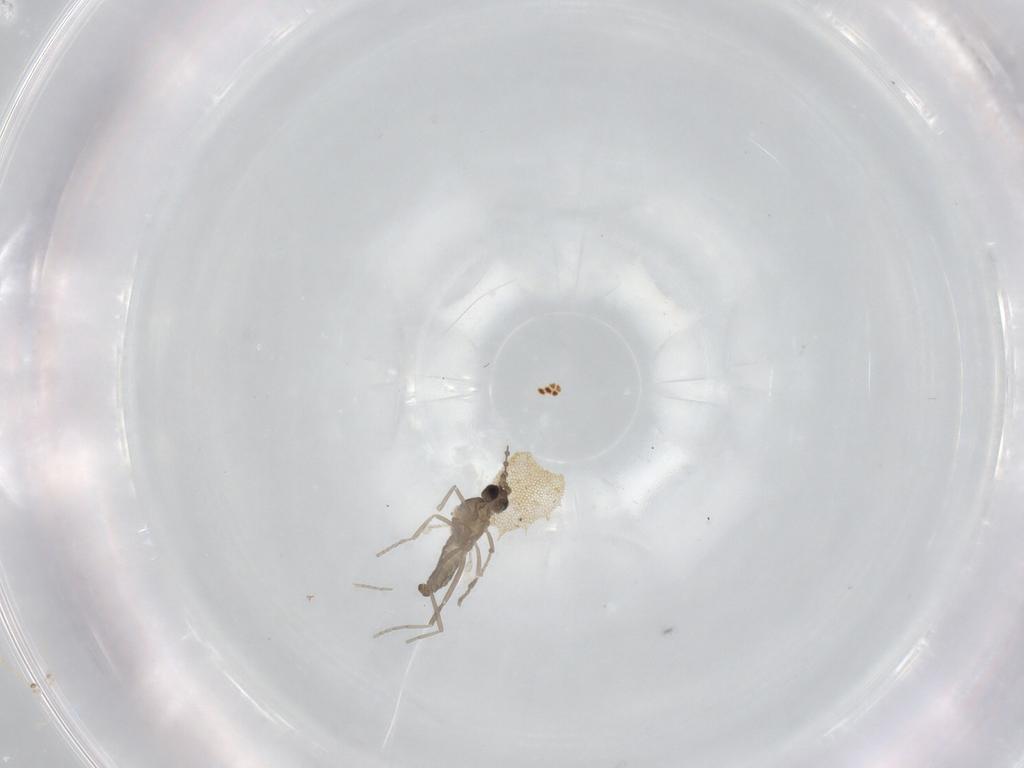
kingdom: Animalia
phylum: Arthropoda
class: Insecta
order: Diptera
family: Cecidomyiidae
